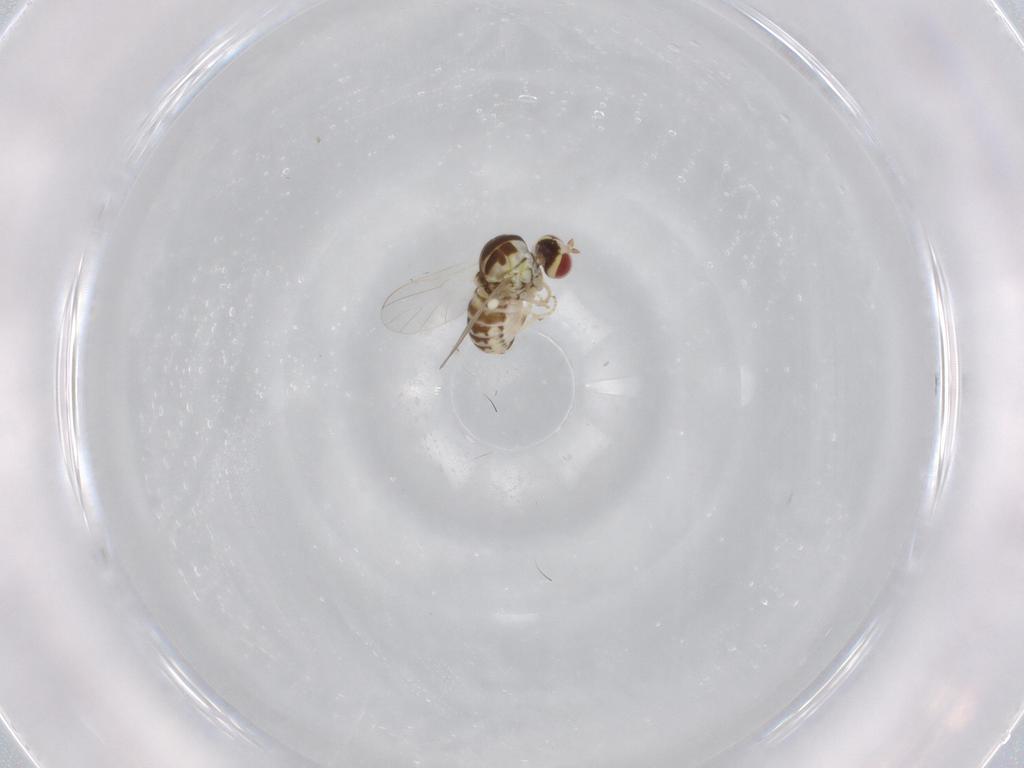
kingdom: Animalia
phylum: Arthropoda
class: Insecta
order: Diptera
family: Bombyliidae
